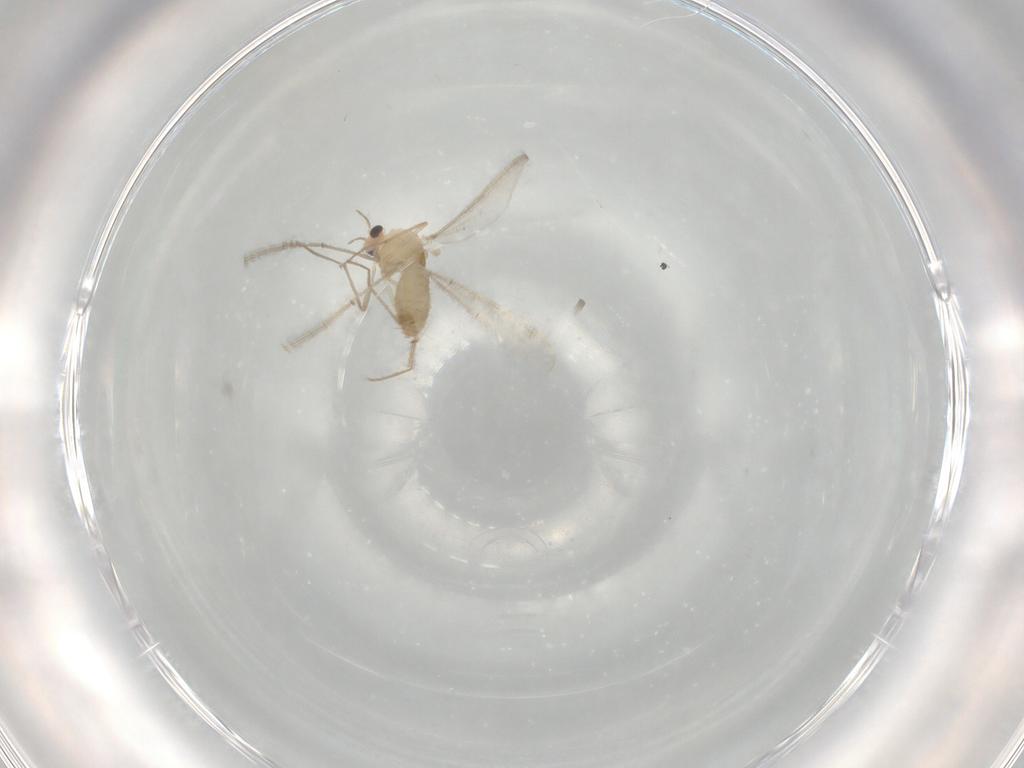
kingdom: Animalia
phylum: Arthropoda
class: Insecta
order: Diptera
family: Chironomidae
